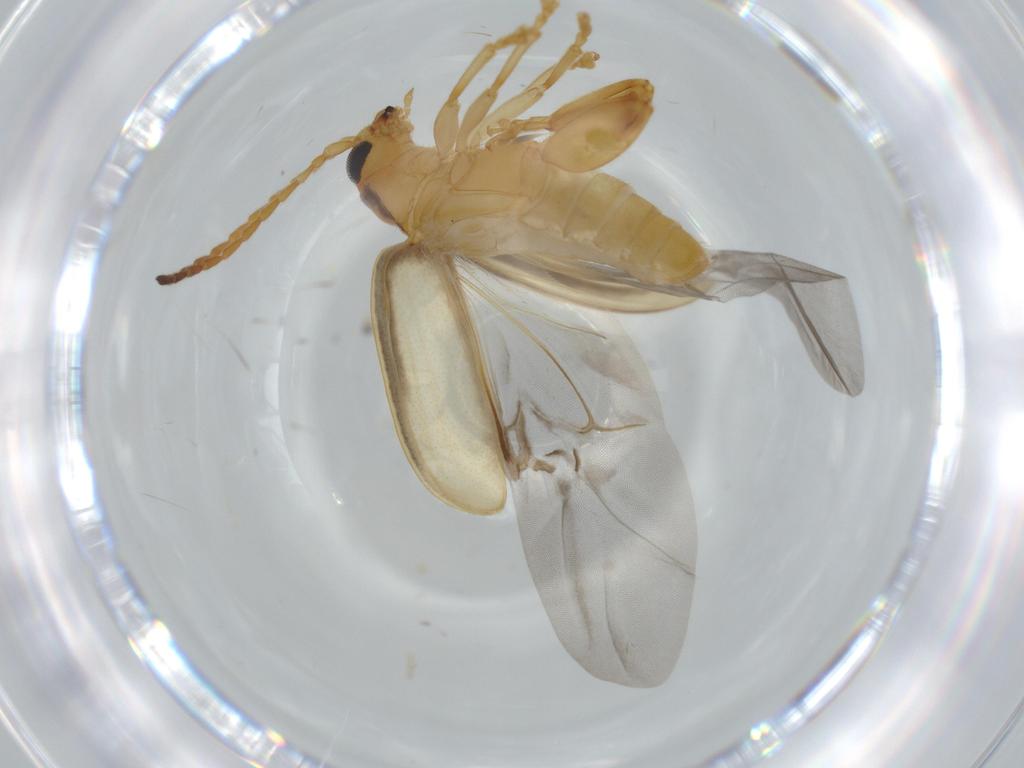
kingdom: Animalia
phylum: Arthropoda
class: Insecta
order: Coleoptera
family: Chrysomelidae
